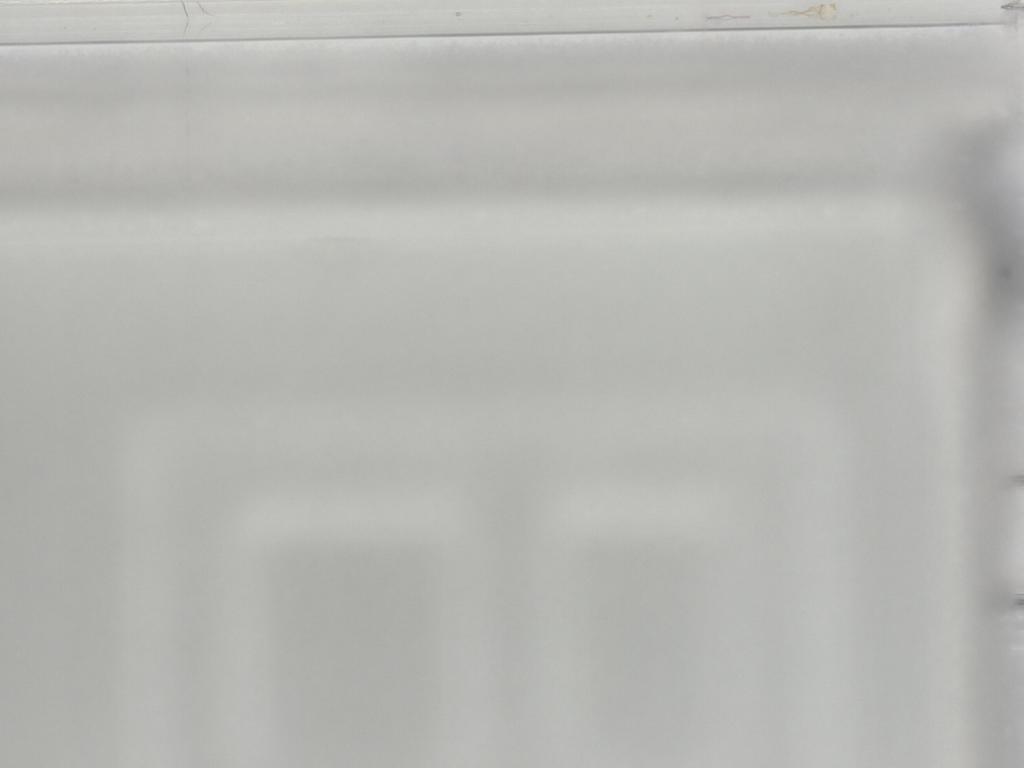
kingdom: Animalia
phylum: Arthropoda
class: Insecta
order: Diptera
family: Sciaridae
